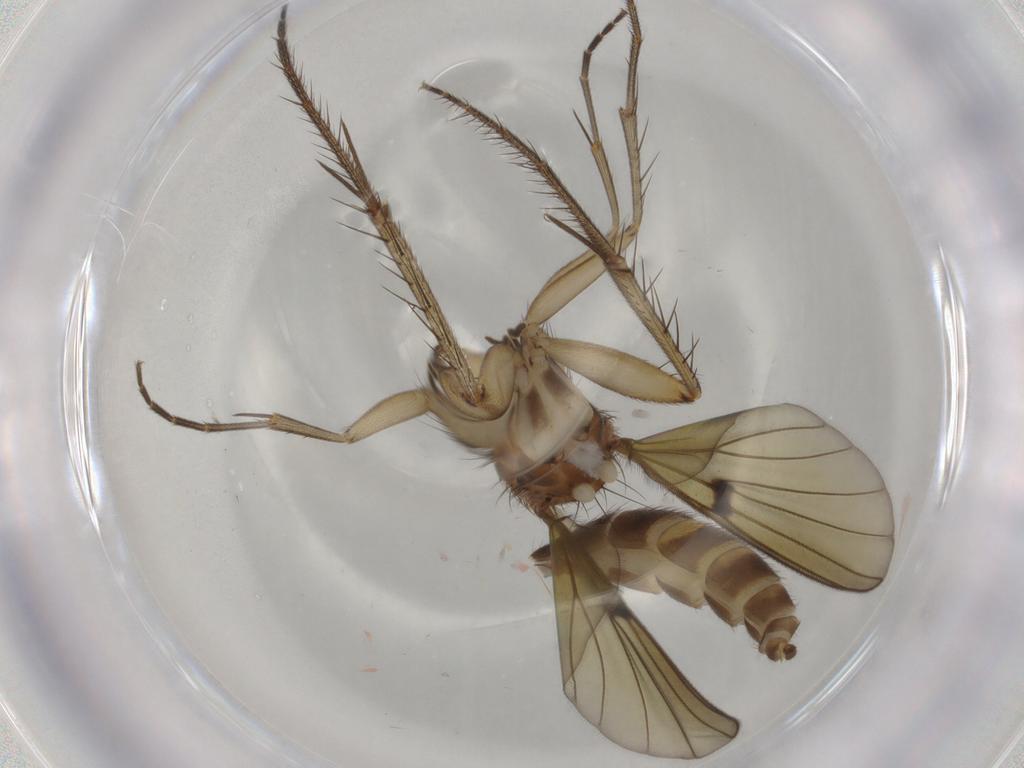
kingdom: Animalia
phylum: Arthropoda
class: Insecta
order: Diptera
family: Mycetophilidae
